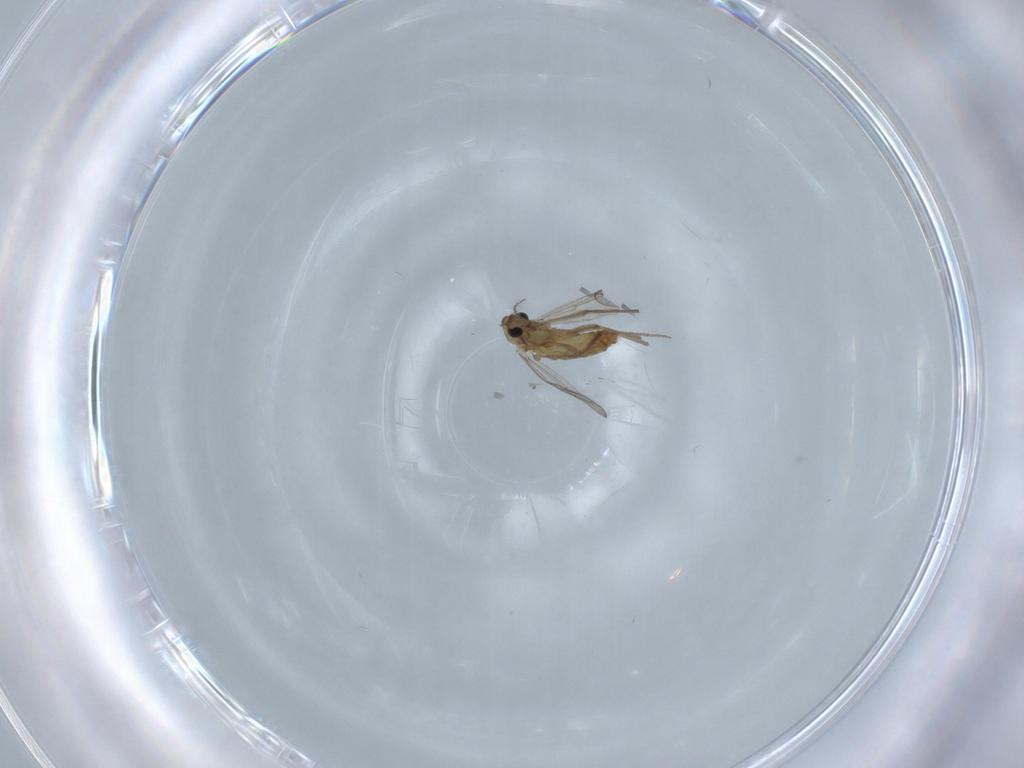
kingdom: Animalia
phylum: Arthropoda
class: Insecta
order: Diptera
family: Chironomidae
